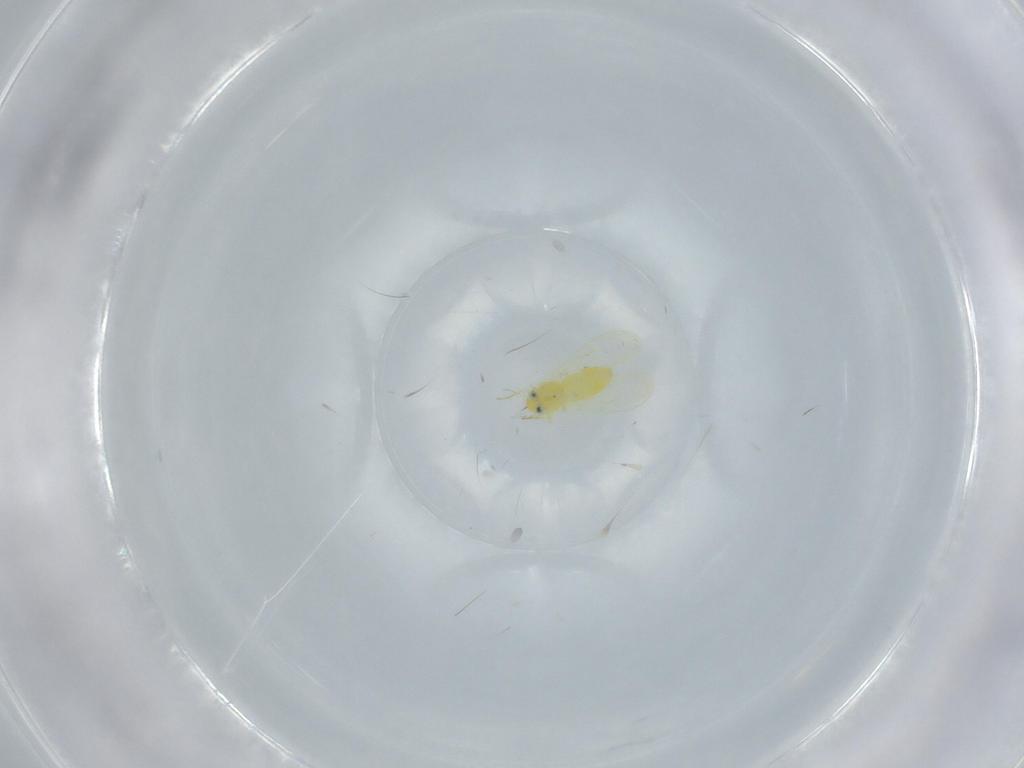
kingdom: Animalia
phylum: Arthropoda
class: Insecta
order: Hemiptera
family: Aleyrodidae
